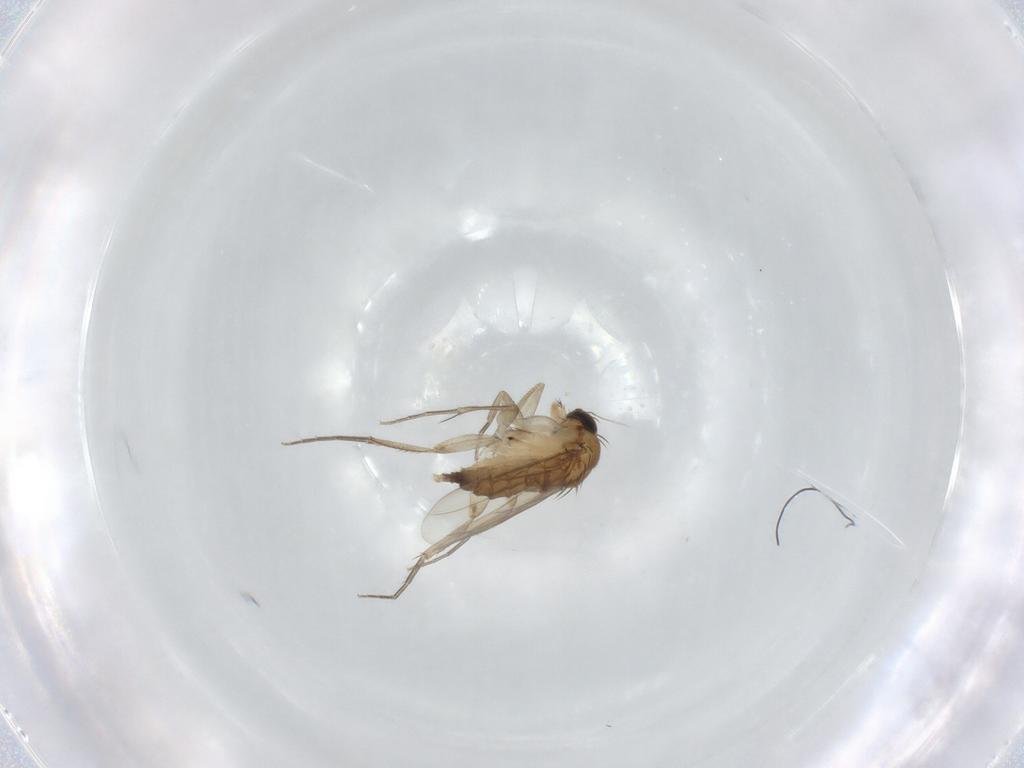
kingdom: Animalia
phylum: Arthropoda
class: Insecta
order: Diptera
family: Phoridae
